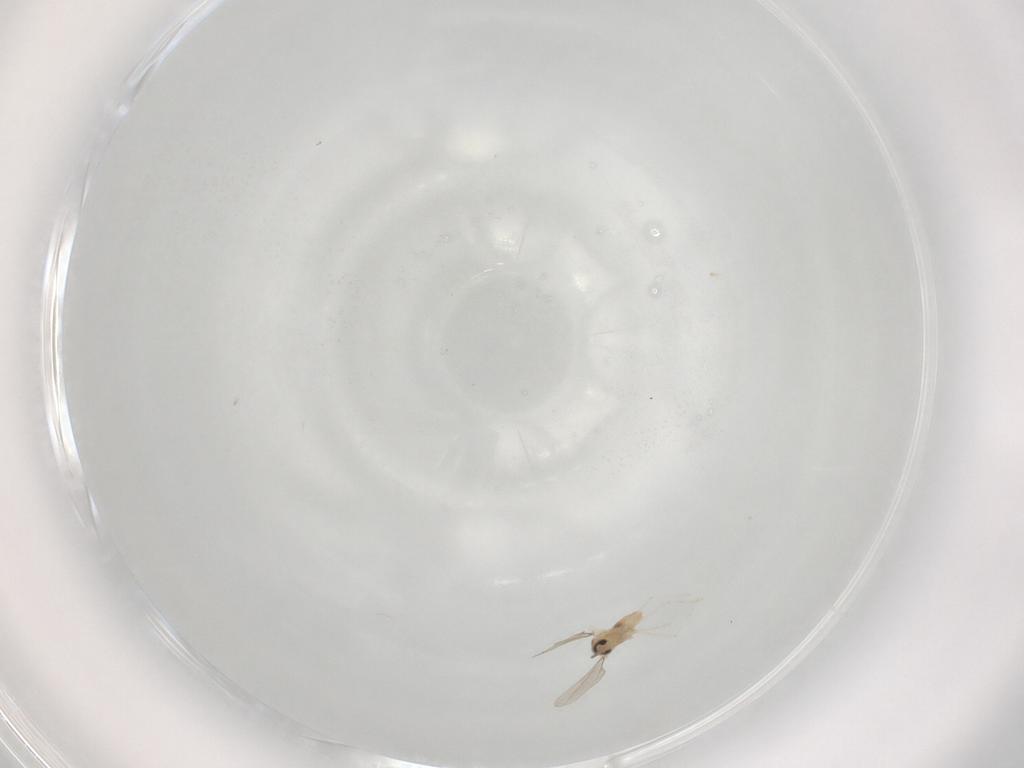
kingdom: Animalia
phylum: Arthropoda
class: Insecta
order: Diptera
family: Cecidomyiidae
